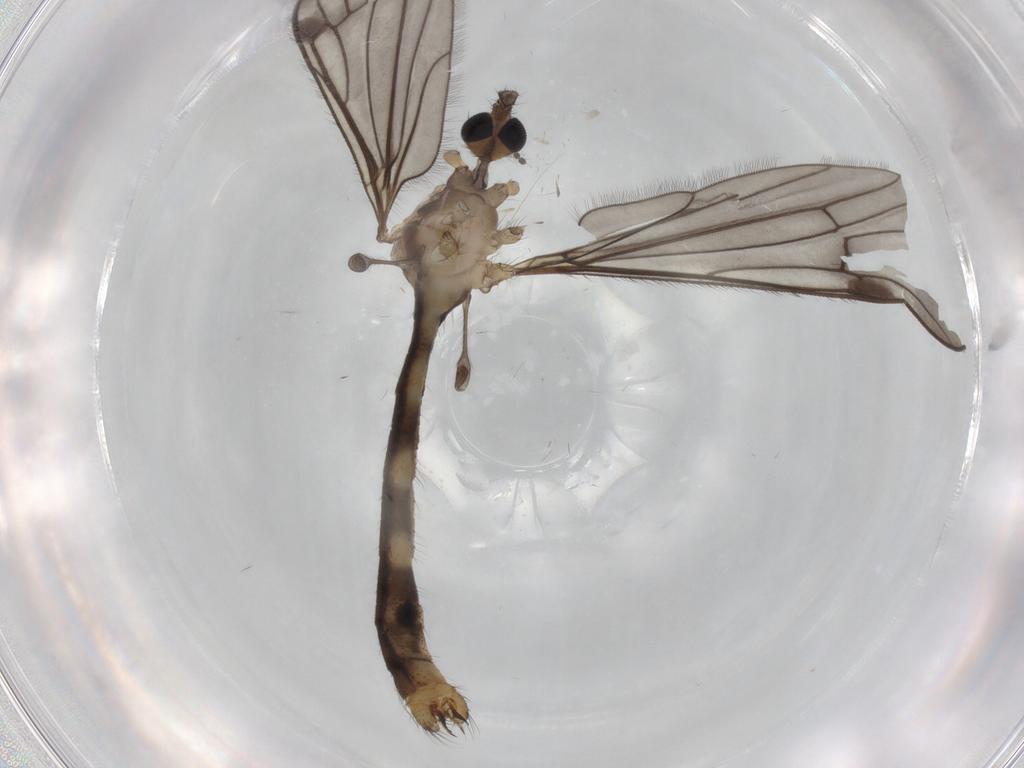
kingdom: Animalia
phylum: Arthropoda
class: Insecta
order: Diptera
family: Limoniidae
